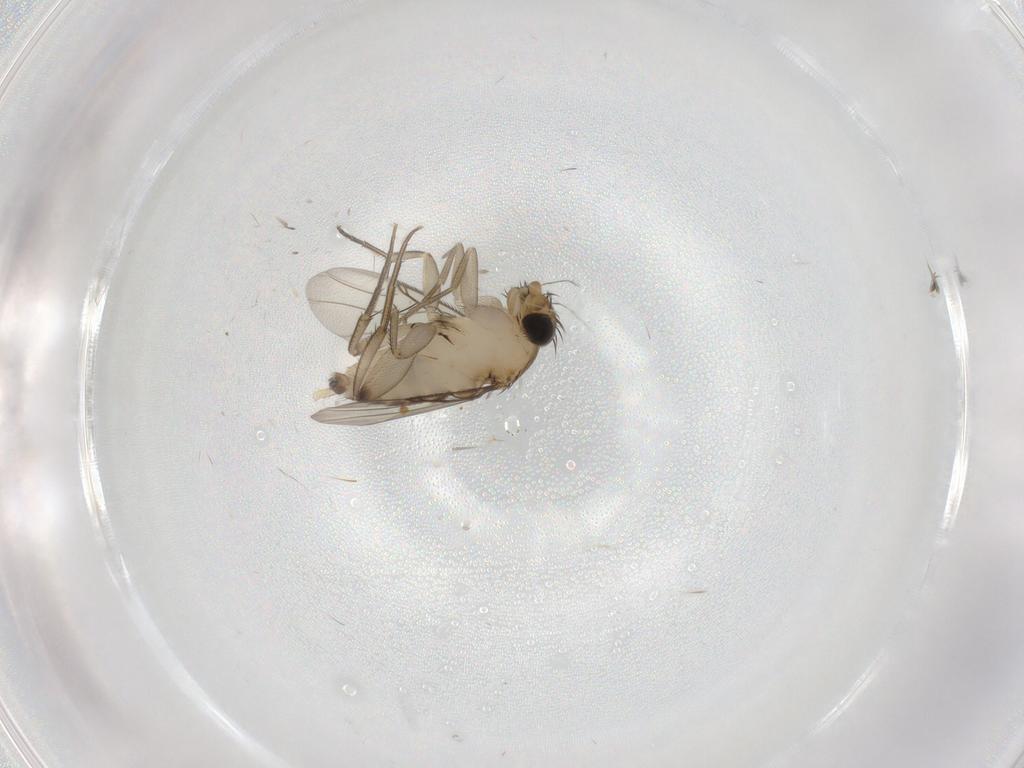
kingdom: Animalia
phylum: Arthropoda
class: Insecta
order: Diptera
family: Phoridae
